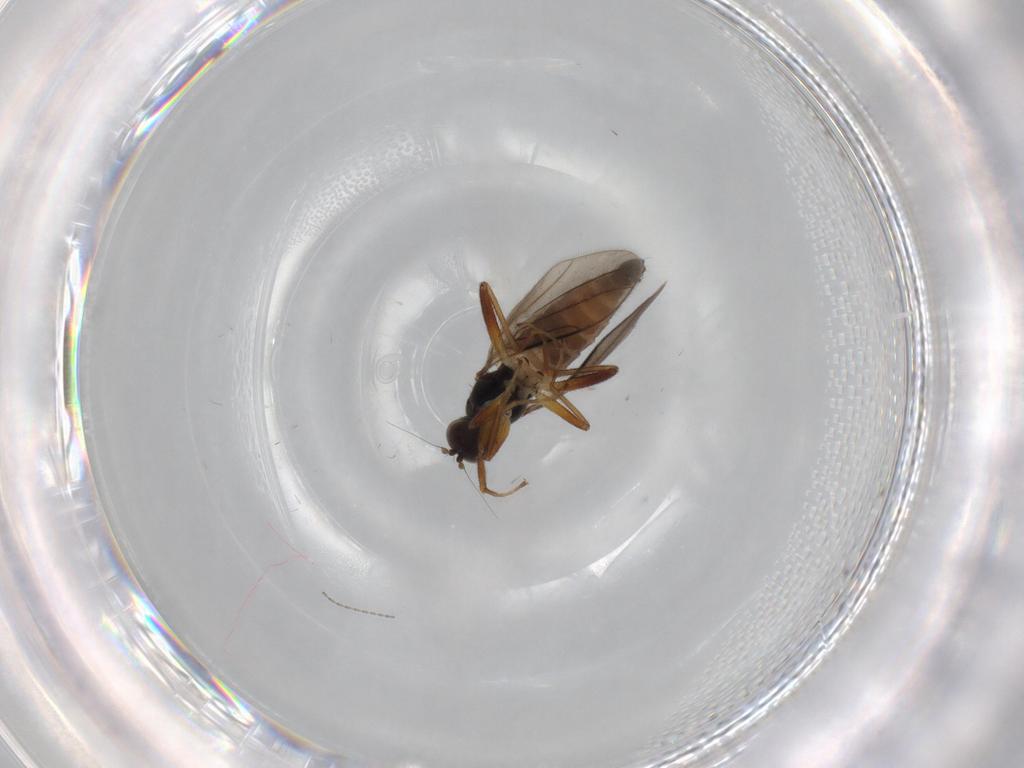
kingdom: Animalia
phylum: Arthropoda
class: Insecta
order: Diptera
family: Hybotidae
